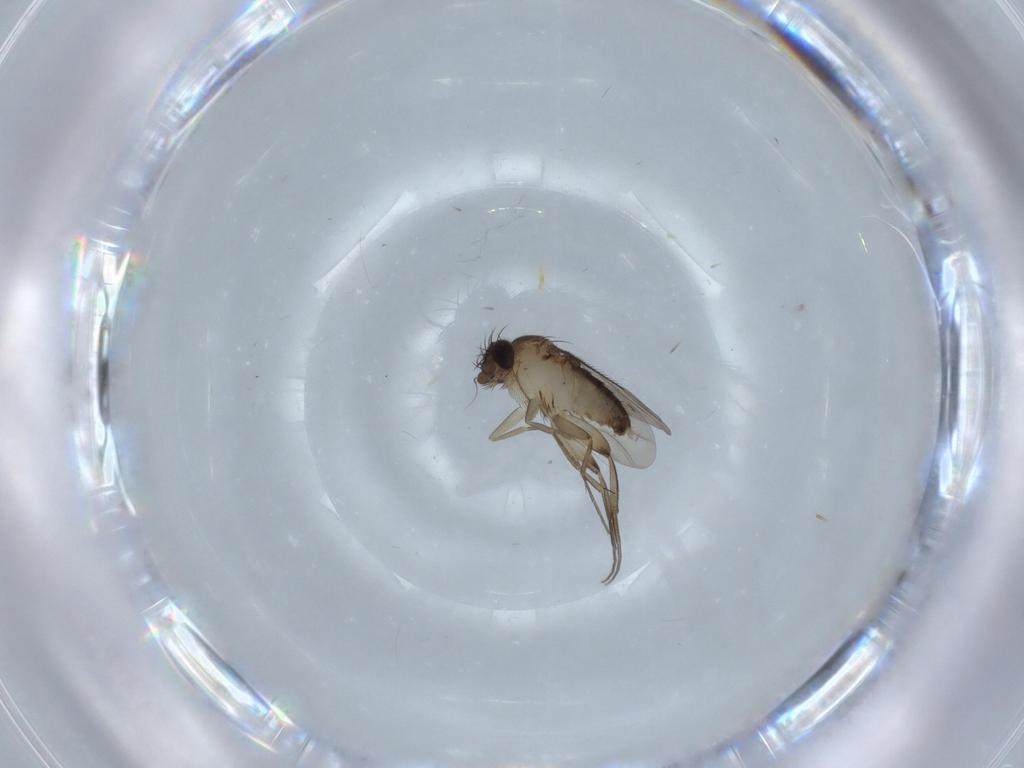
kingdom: Animalia
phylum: Arthropoda
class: Insecta
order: Diptera
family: Phoridae
